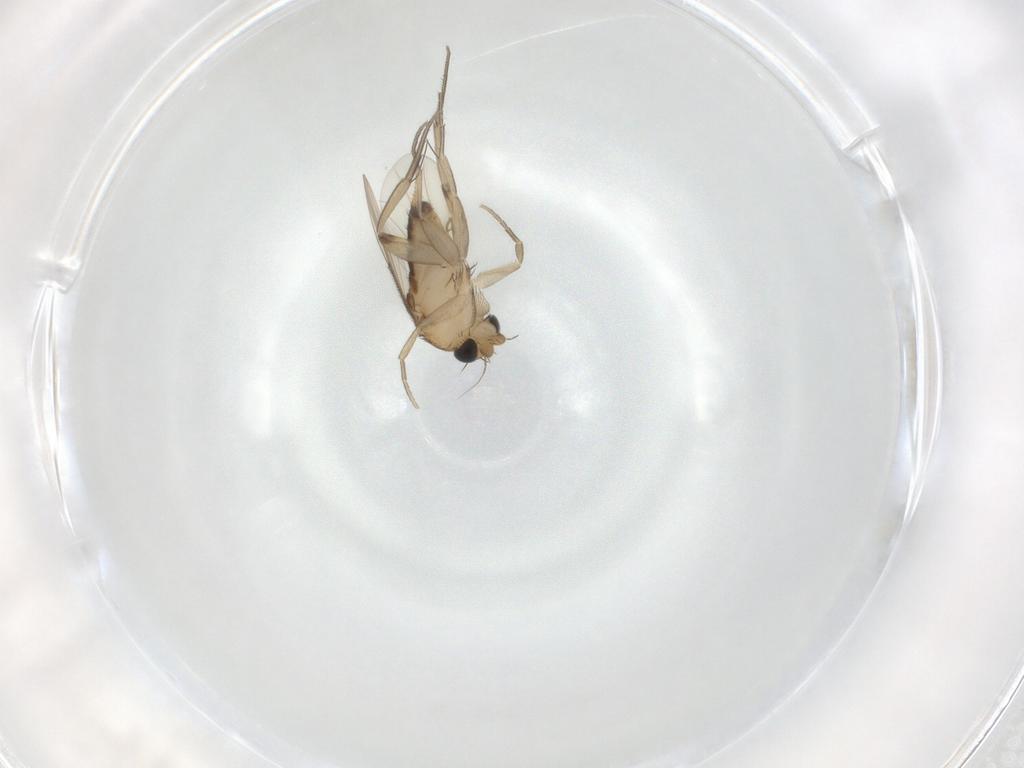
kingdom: Animalia
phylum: Arthropoda
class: Insecta
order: Diptera
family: Phoridae
